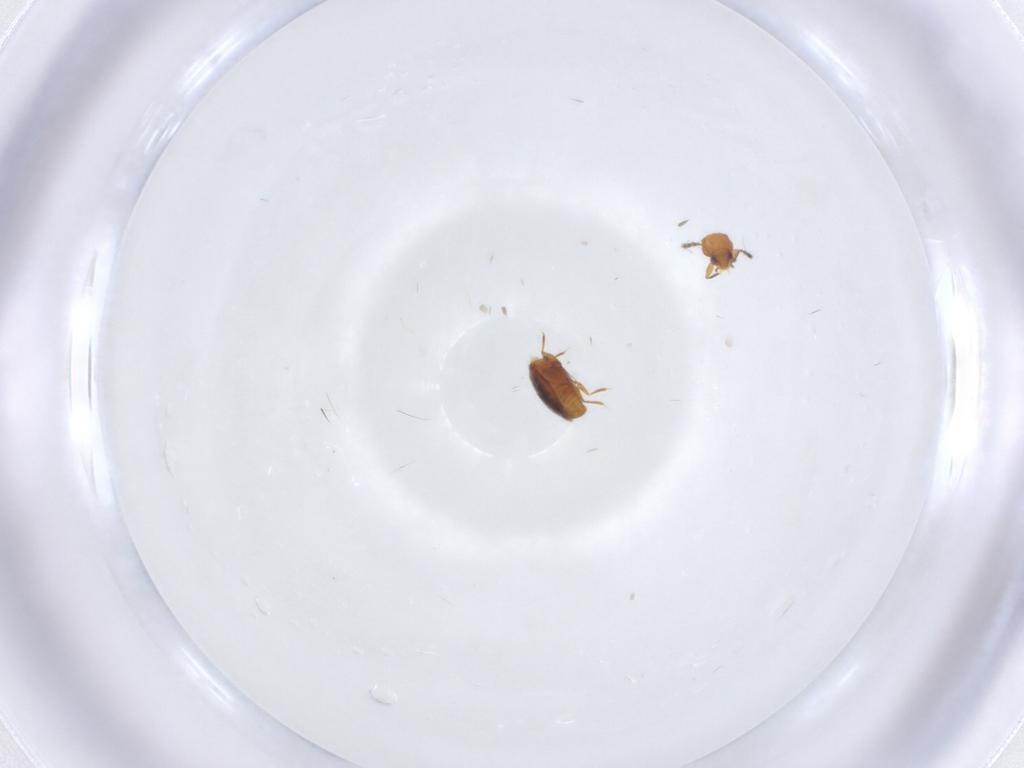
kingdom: Animalia
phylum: Arthropoda
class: Insecta
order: Coleoptera
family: Ptiliidae
